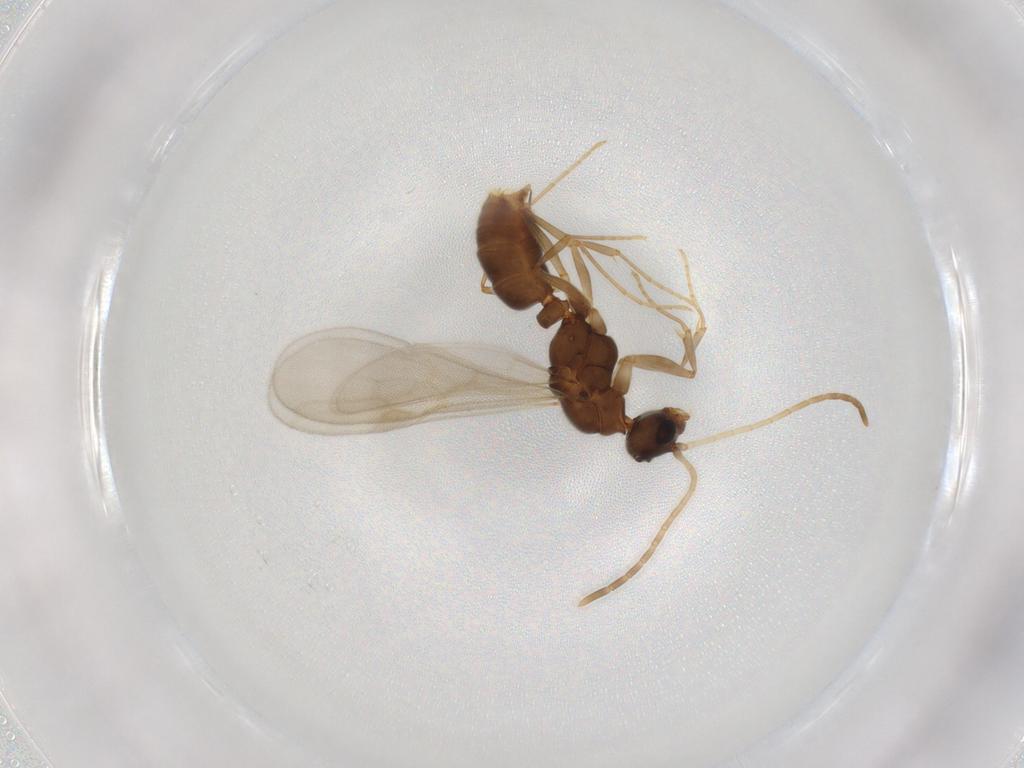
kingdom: Animalia
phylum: Arthropoda
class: Insecta
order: Hymenoptera
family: Formicidae
